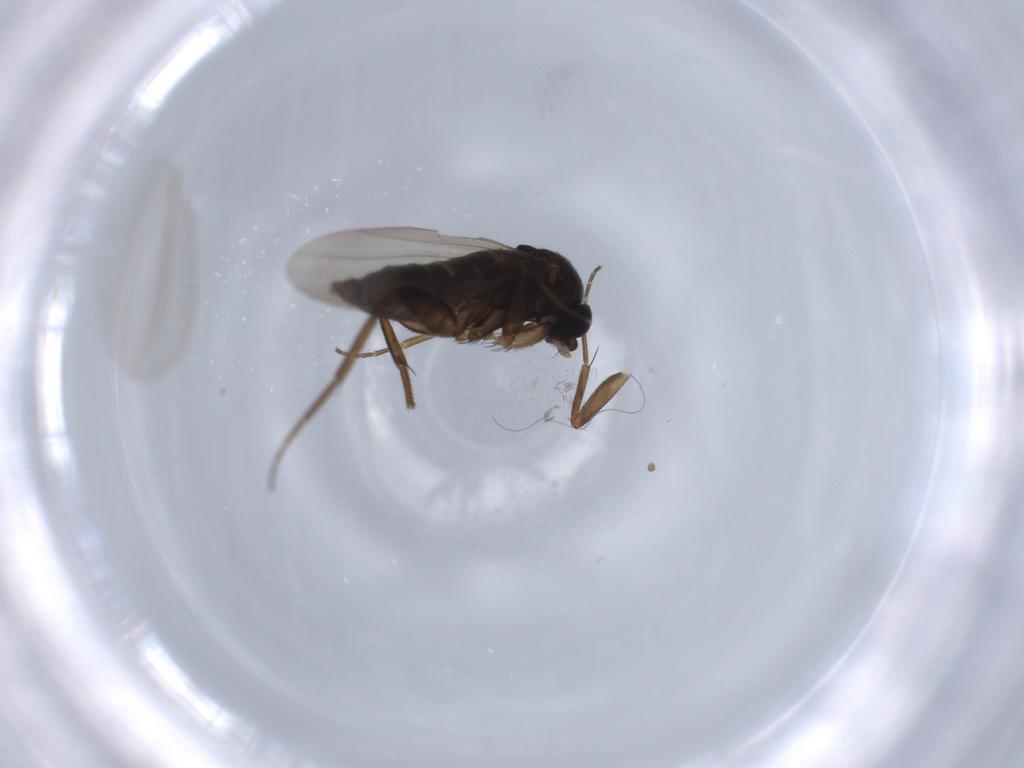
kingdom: Animalia
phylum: Arthropoda
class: Insecta
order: Diptera
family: Phoridae
